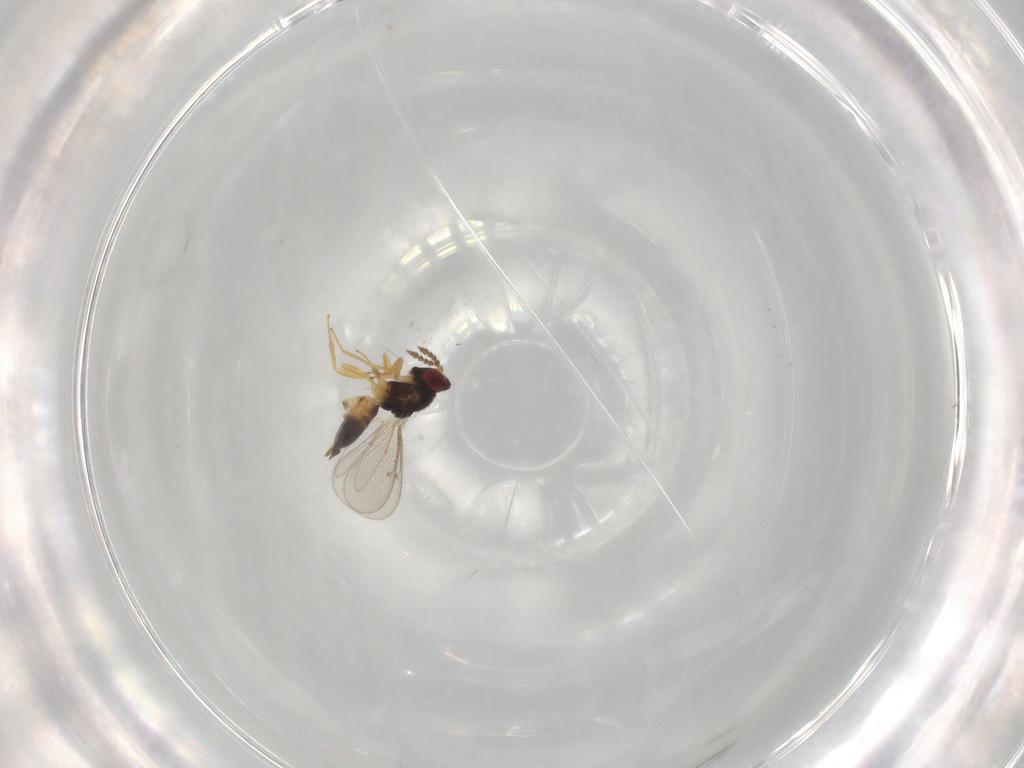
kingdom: Animalia
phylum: Arthropoda
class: Insecta
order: Hymenoptera
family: Eulophidae
